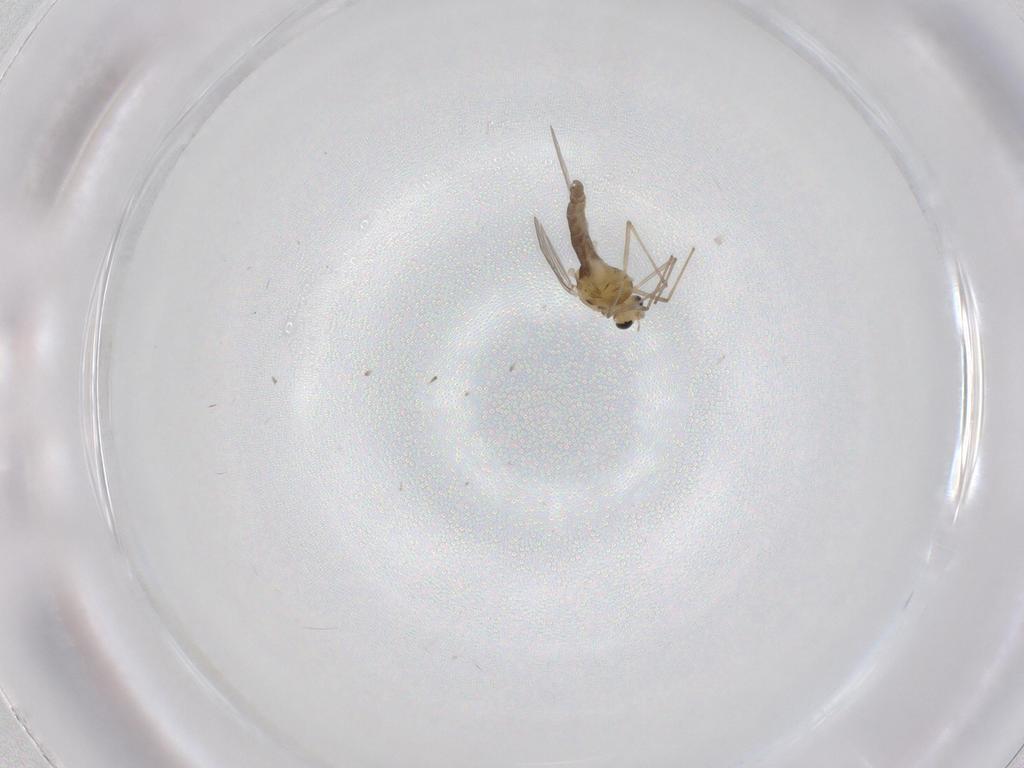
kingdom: Animalia
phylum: Arthropoda
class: Insecta
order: Diptera
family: Chironomidae
